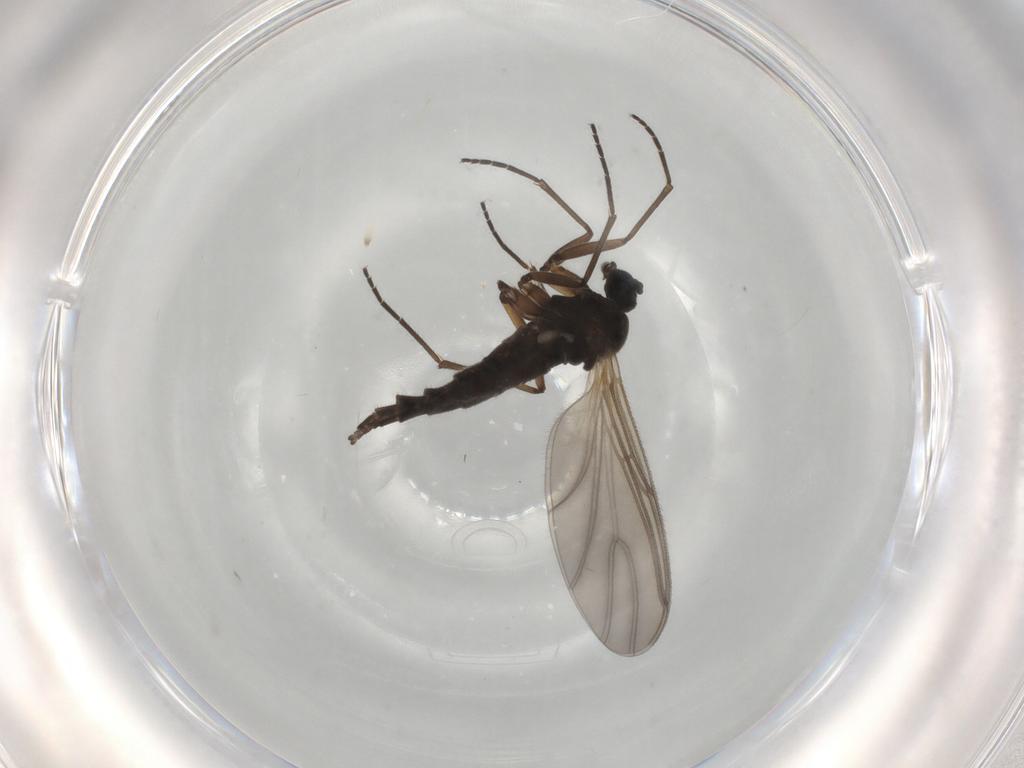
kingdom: Animalia
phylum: Arthropoda
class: Insecta
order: Diptera
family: Sciaridae
